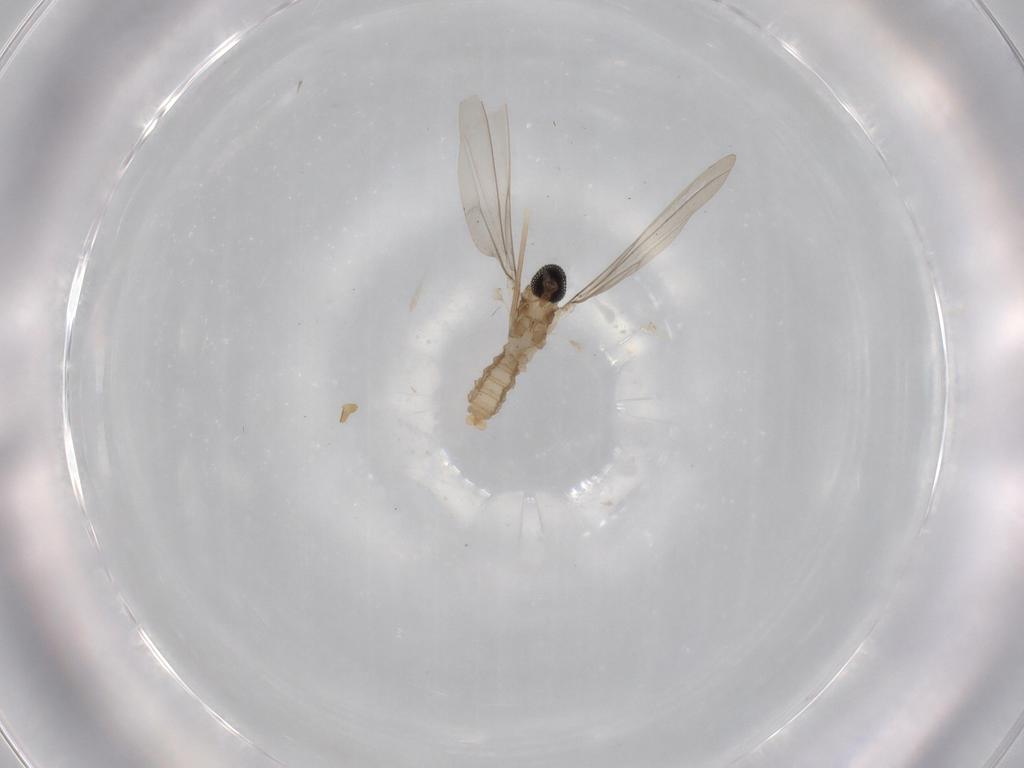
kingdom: Animalia
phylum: Arthropoda
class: Insecta
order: Diptera
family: Cecidomyiidae
